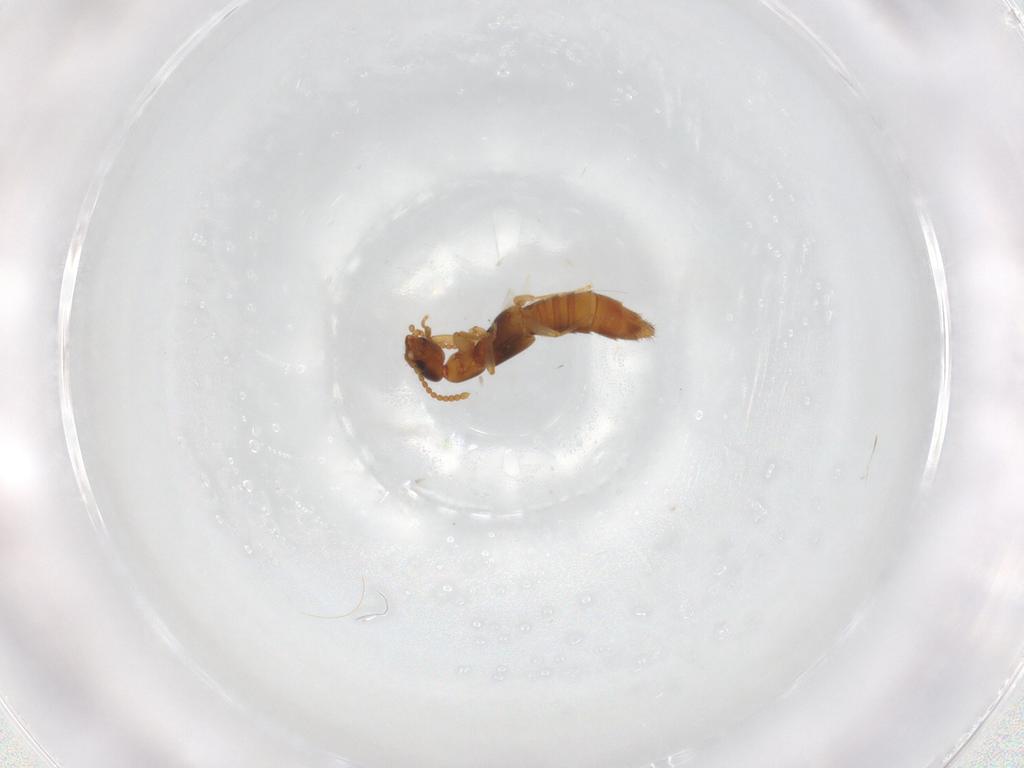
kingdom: Animalia
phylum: Arthropoda
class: Insecta
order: Coleoptera
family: Staphylinidae
